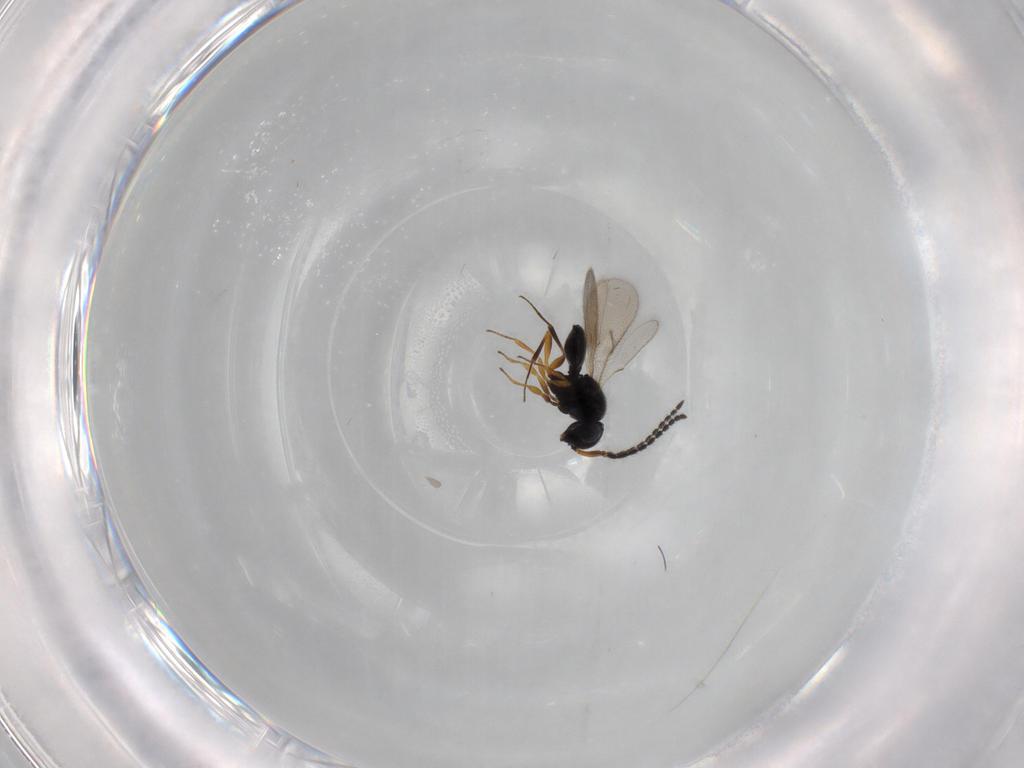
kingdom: Animalia
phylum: Arthropoda
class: Insecta
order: Hymenoptera
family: Scelionidae
